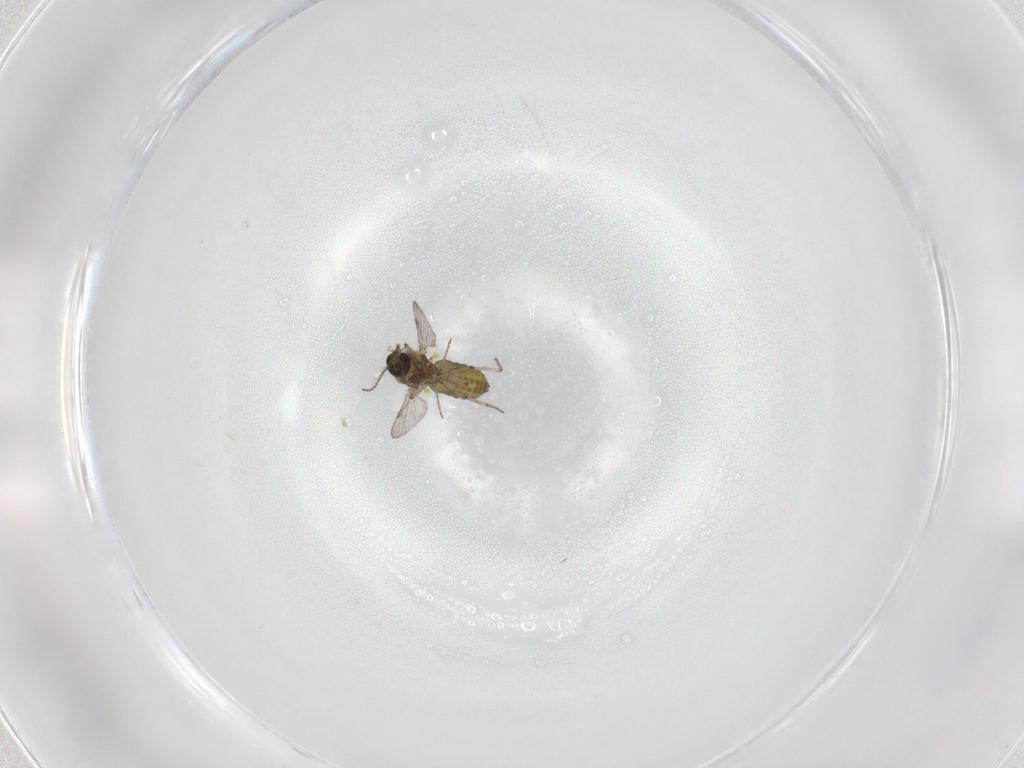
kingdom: Animalia
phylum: Arthropoda
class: Insecta
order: Diptera
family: Ceratopogonidae
